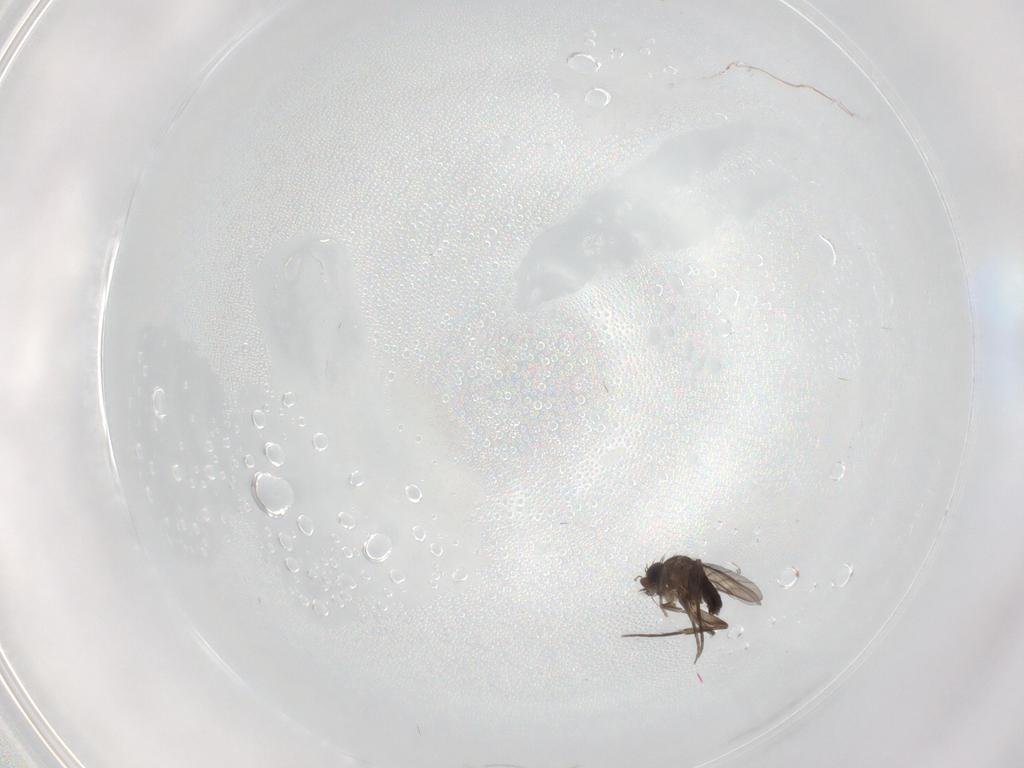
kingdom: Animalia
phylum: Arthropoda
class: Insecta
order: Diptera
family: Phoridae
